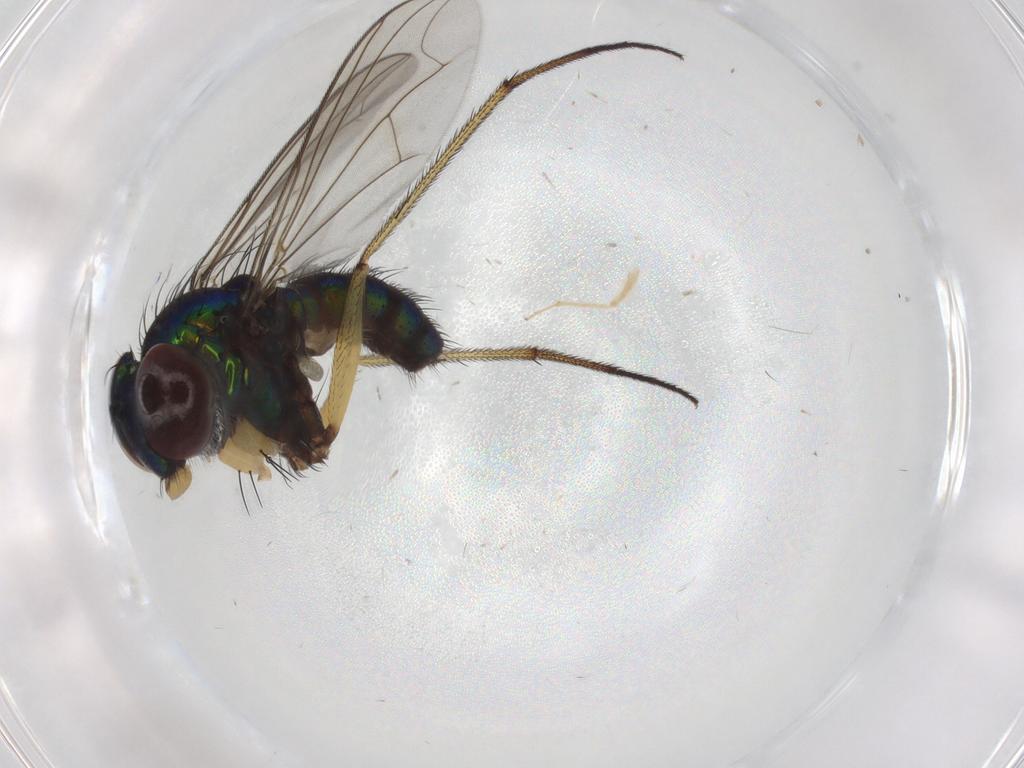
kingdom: Animalia
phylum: Arthropoda
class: Insecta
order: Diptera
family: Dolichopodidae
